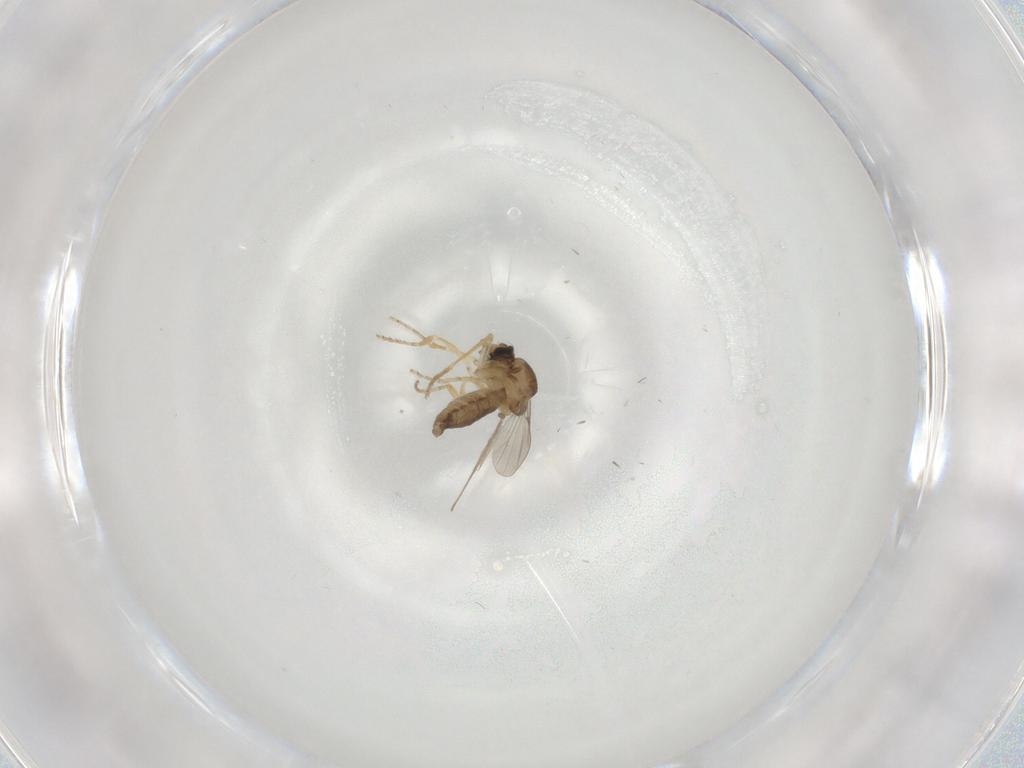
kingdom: Animalia
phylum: Arthropoda
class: Insecta
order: Diptera
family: Ceratopogonidae
